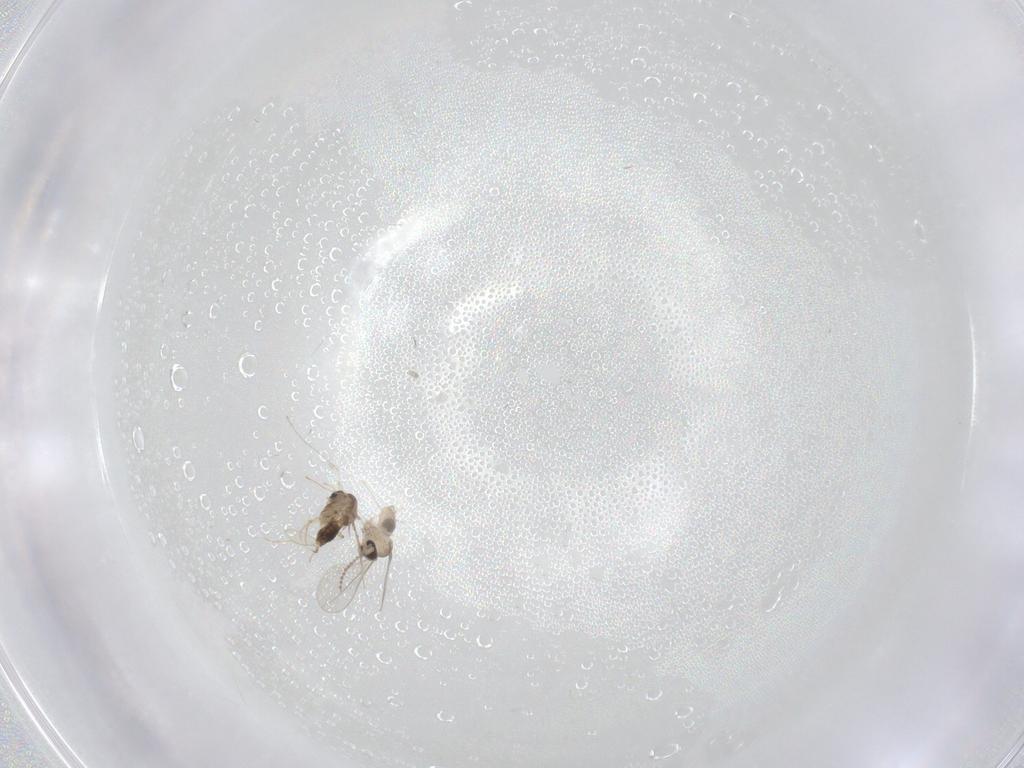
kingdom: Animalia
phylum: Arthropoda
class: Insecta
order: Diptera
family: Chironomidae
